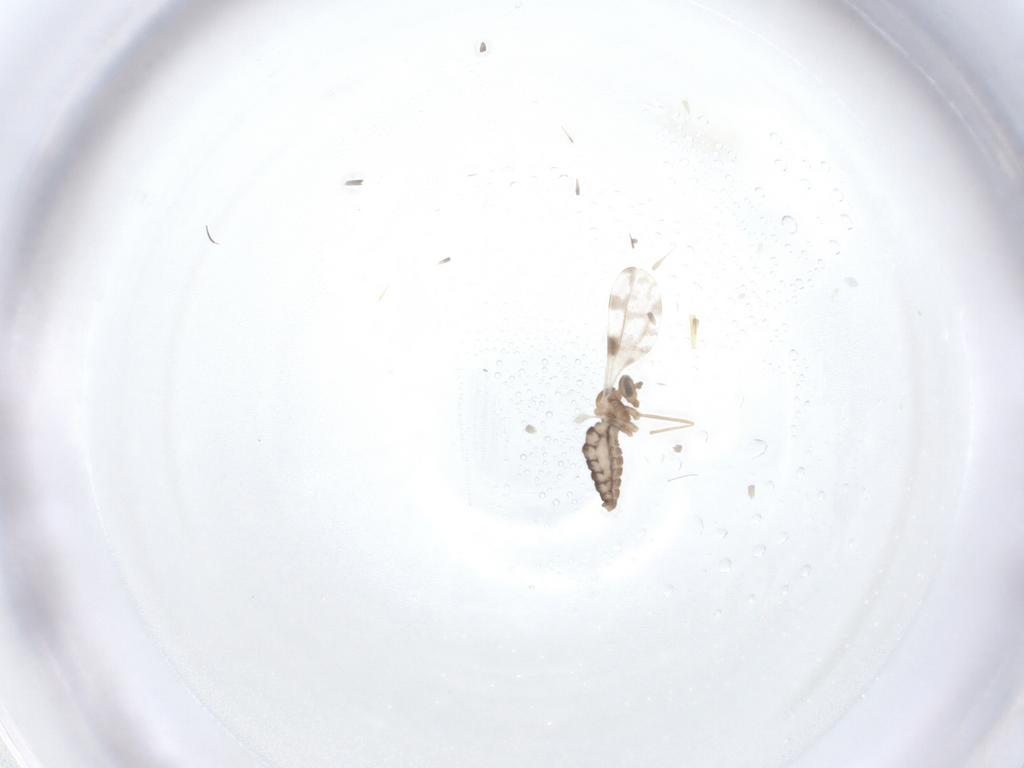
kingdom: Animalia
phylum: Arthropoda
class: Insecta
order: Diptera
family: Cecidomyiidae
